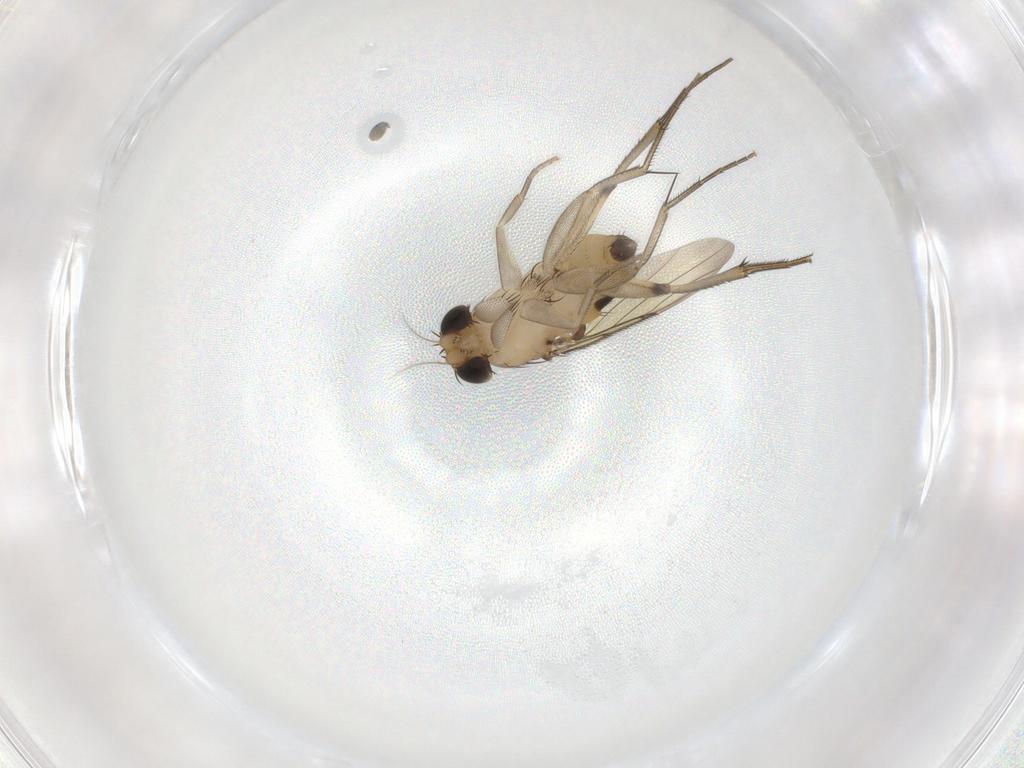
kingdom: Animalia
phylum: Arthropoda
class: Insecta
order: Diptera
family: Phoridae
